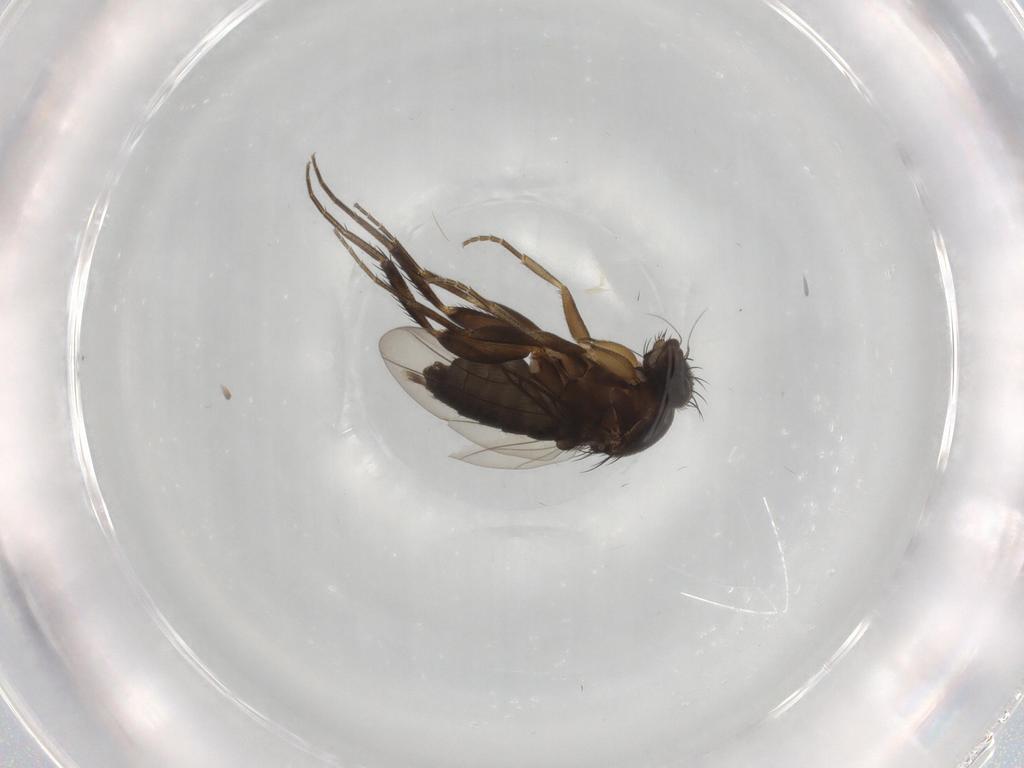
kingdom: Animalia
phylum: Arthropoda
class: Insecta
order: Diptera
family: Phoridae
